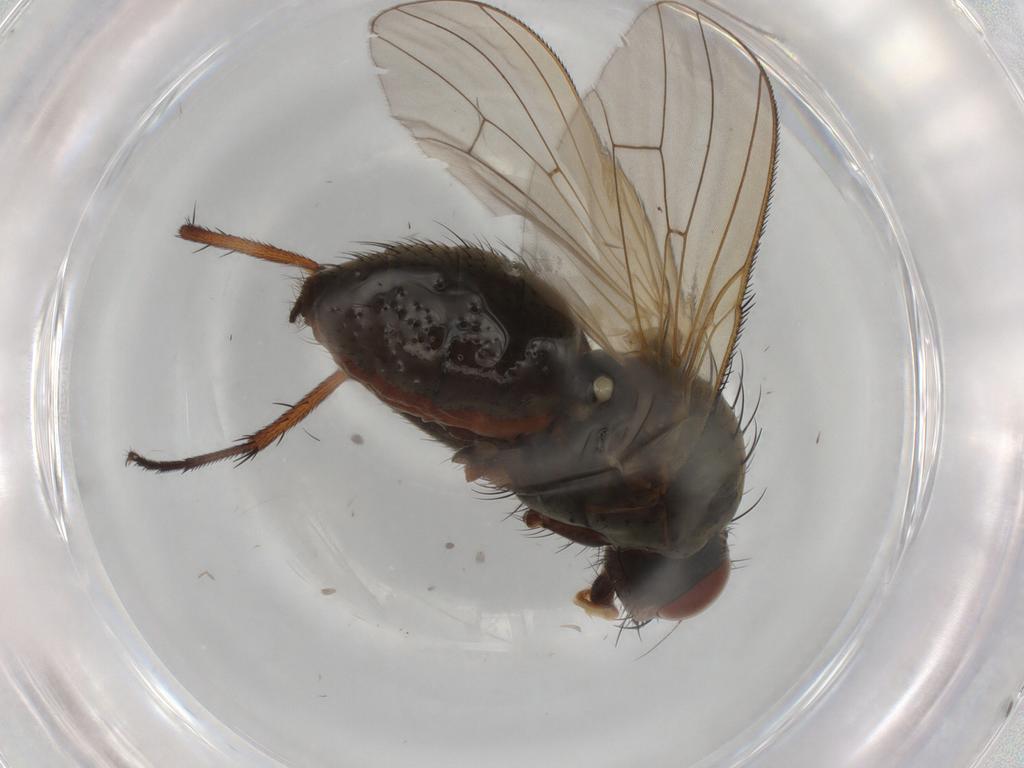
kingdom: Animalia
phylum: Arthropoda
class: Insecta
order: Diptera
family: Anthomyiidae
